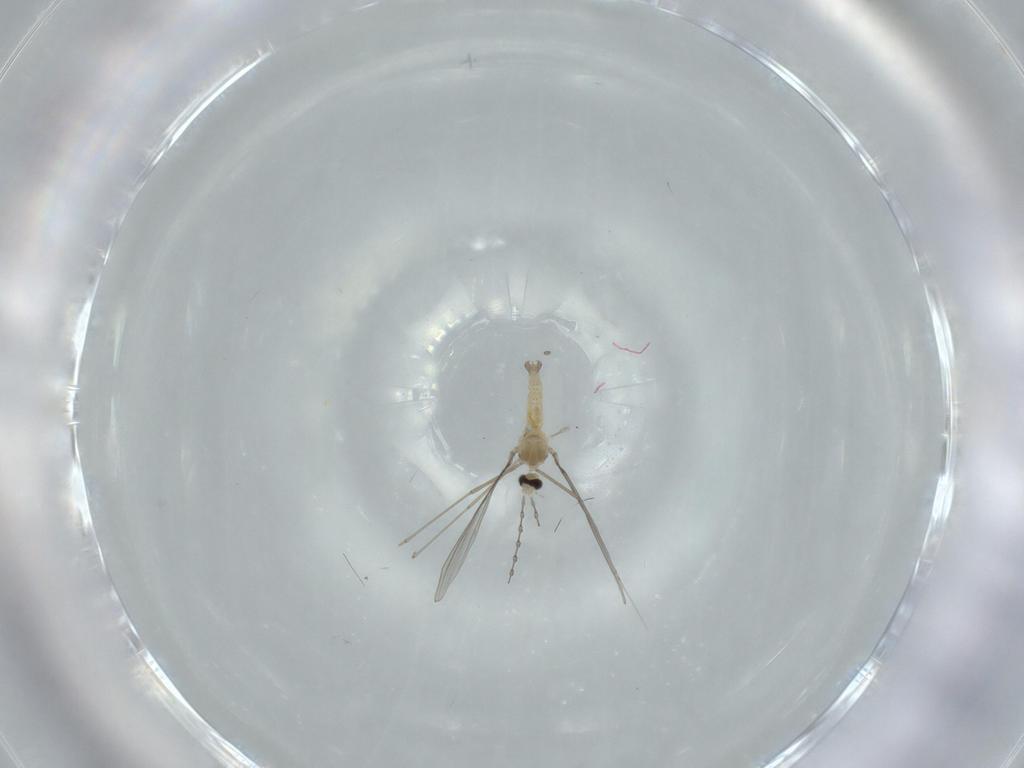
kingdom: Animalia
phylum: Arthropoda
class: Insecta
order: Diptera
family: Cecidomyiidae
